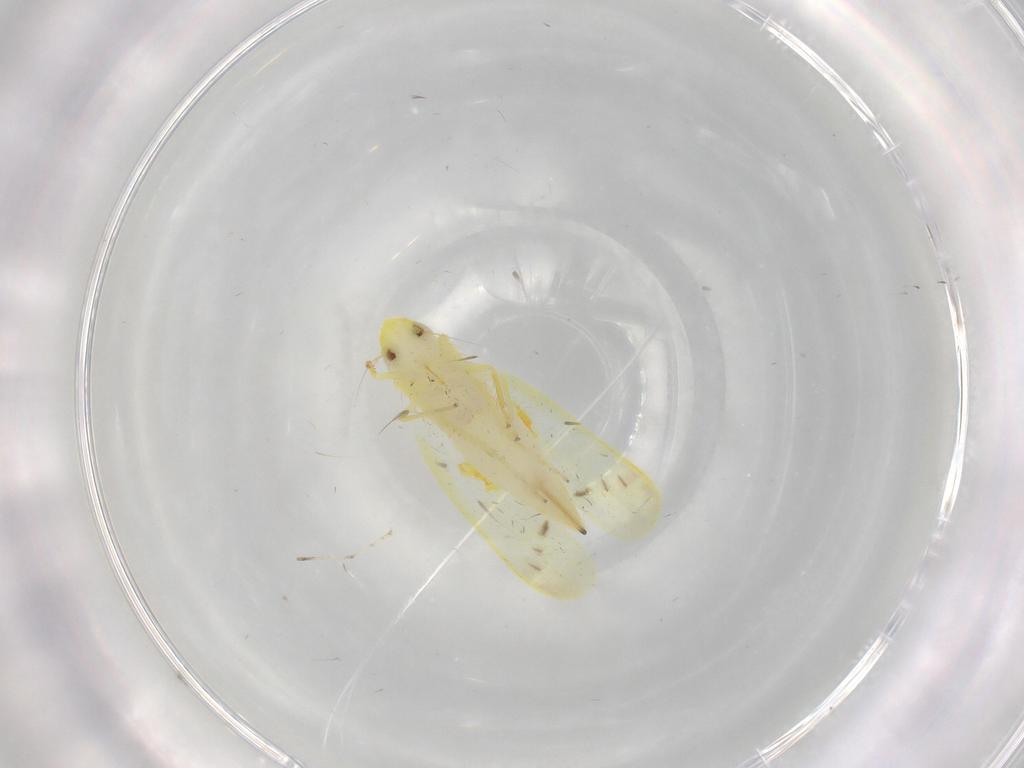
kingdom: Animalia
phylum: Arthropoda
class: Insecta
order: Hemiptera
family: Cicadellidae
